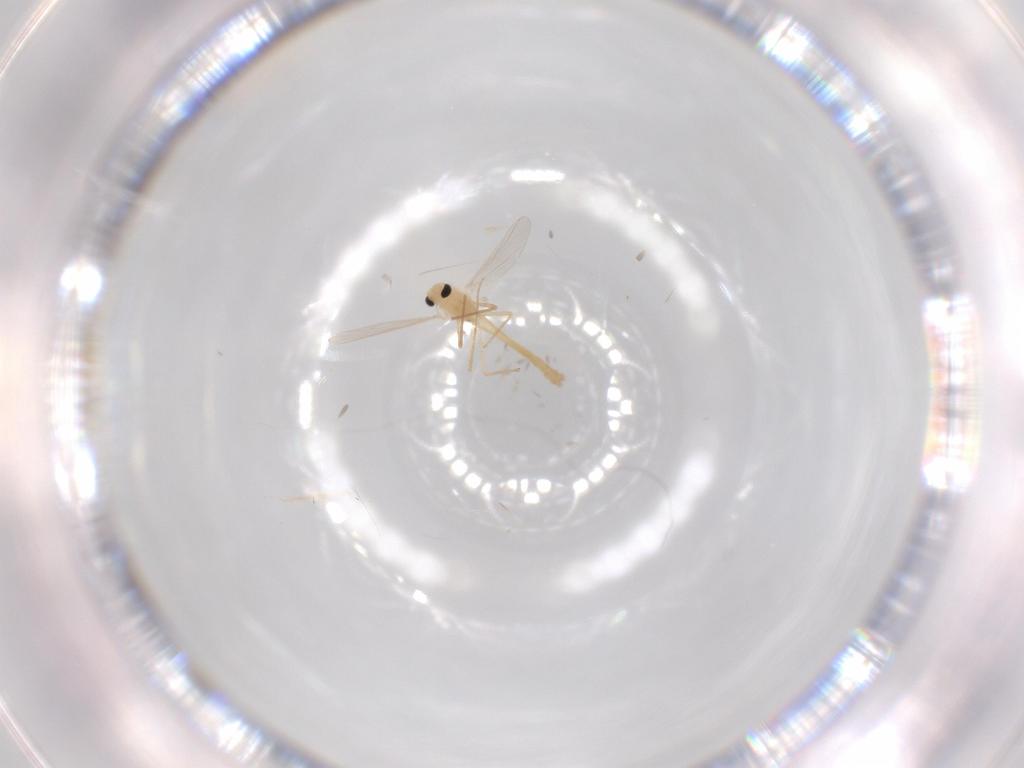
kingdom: Animalia
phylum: Arthropoda
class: Insecta
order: Diptera
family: Chironomidae
